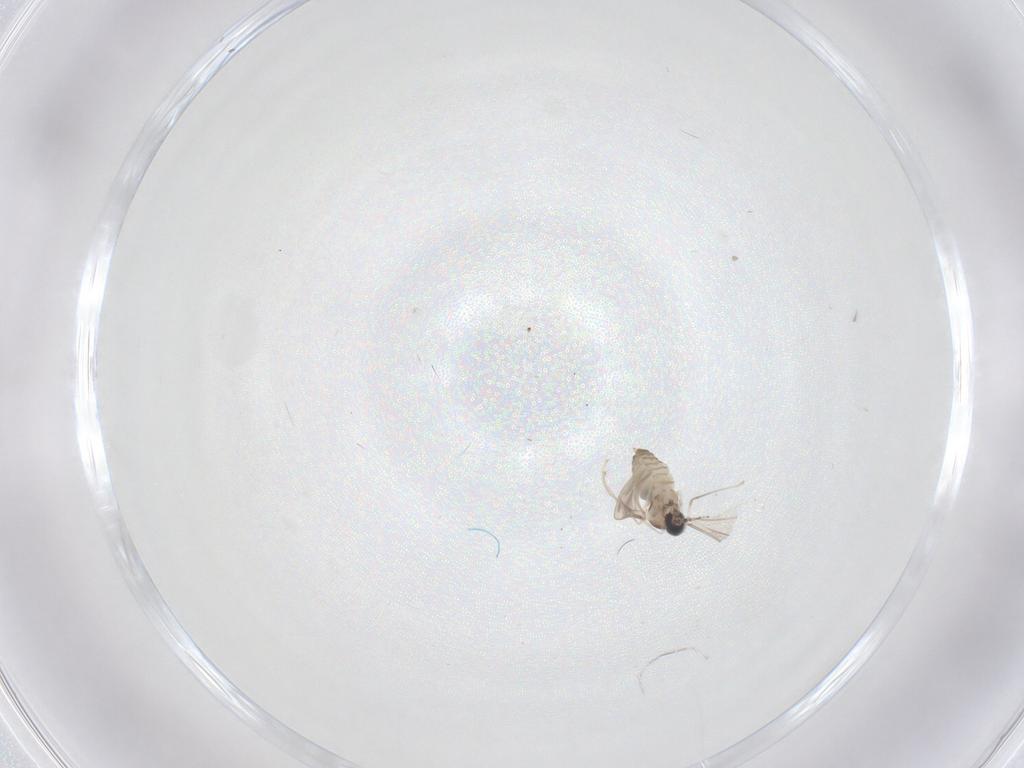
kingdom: Animalia
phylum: Arthropoda
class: Insecta
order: Diptera
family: Cecidomyiidae
